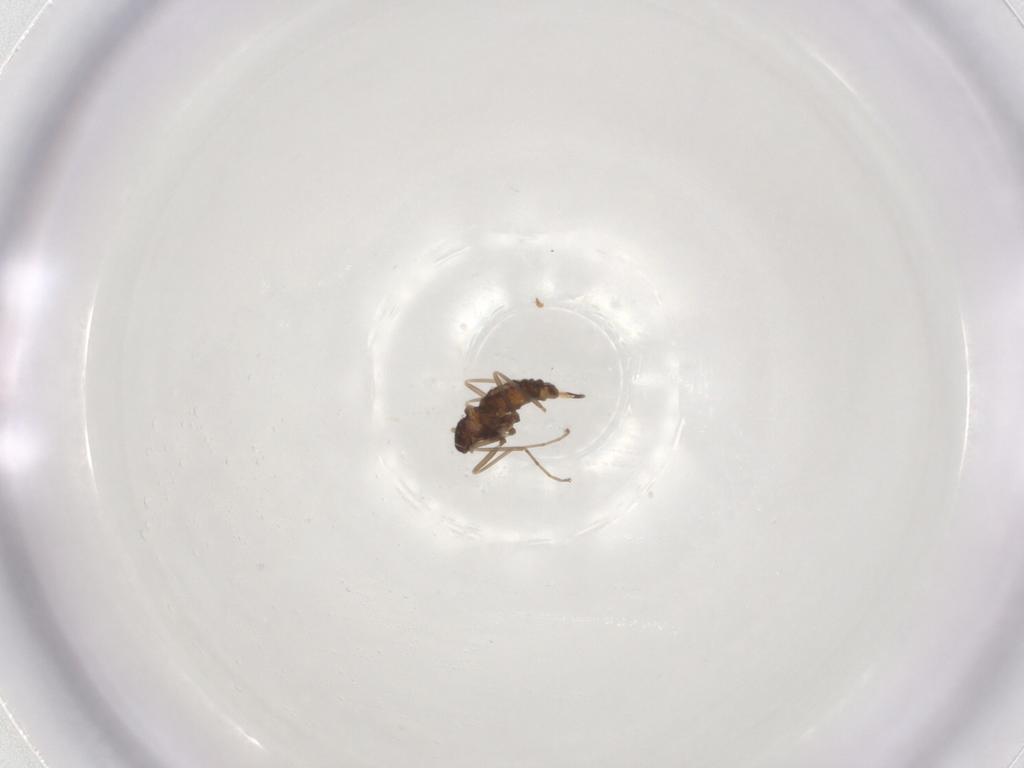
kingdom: Animalia
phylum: Arthropoda
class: Insecta
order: Diptera
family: Cecidomyiidae
